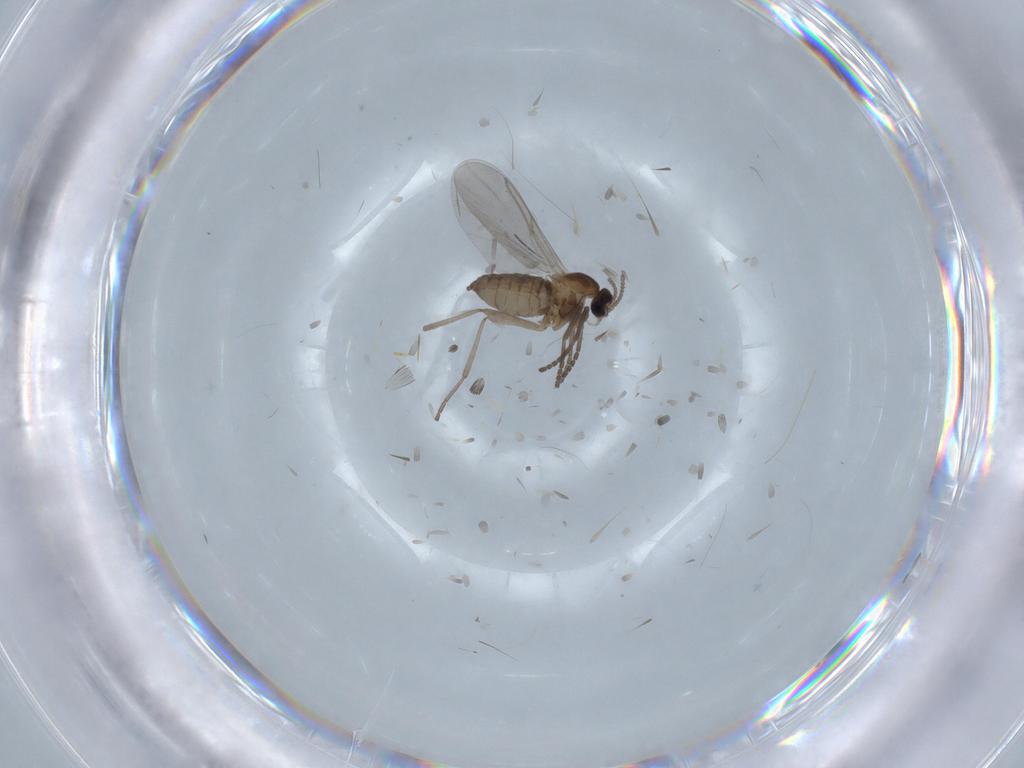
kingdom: Animalia
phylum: Arthropoda
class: Insecta
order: Diptera
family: Cecidomyiidae
